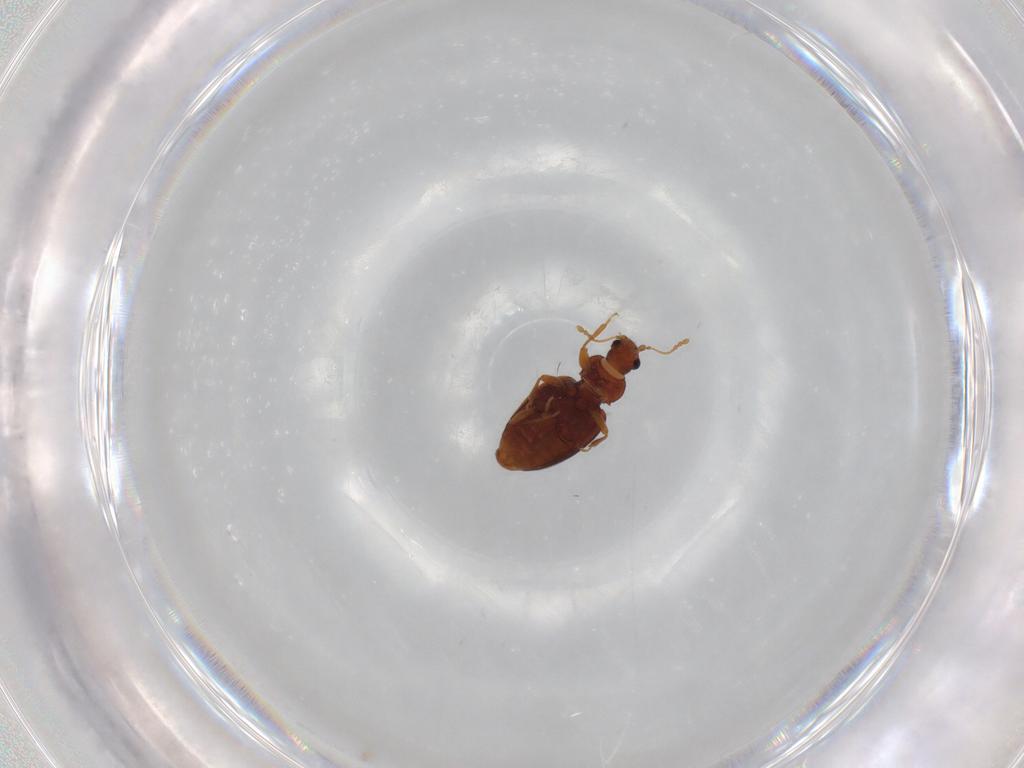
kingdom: Animalia
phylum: Arthropoda
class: Insecta
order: Coleoptera
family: Latridiidae
